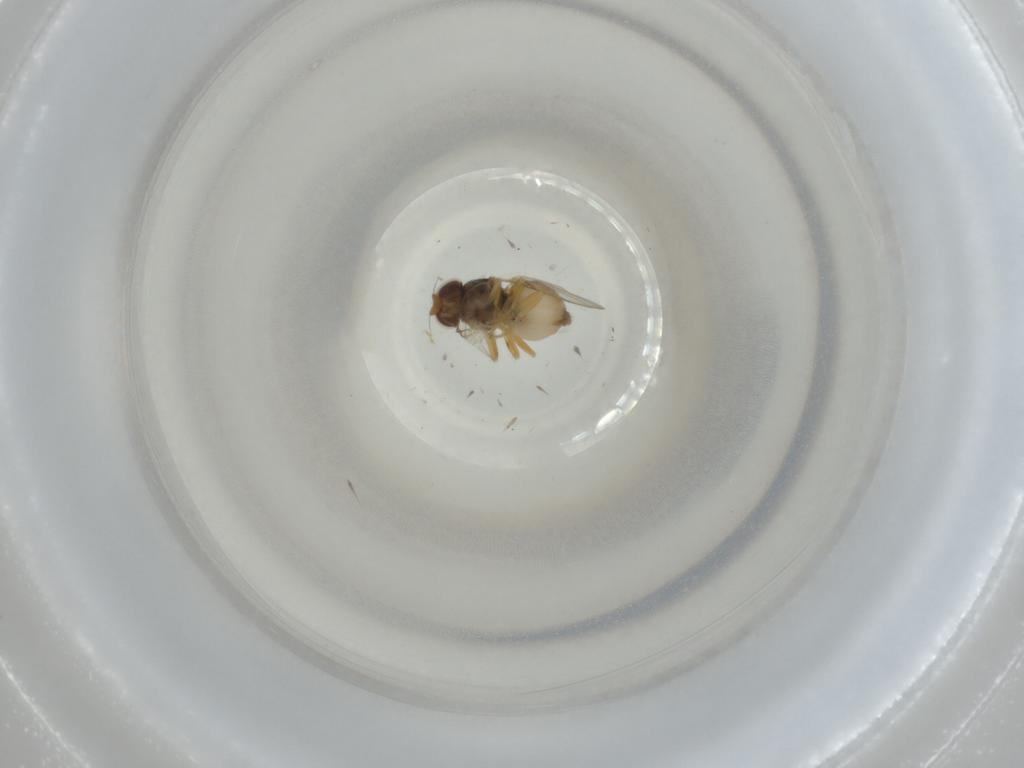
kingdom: Animalia
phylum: Arthropoda
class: Insecta
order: Diptera
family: Chloropidae
